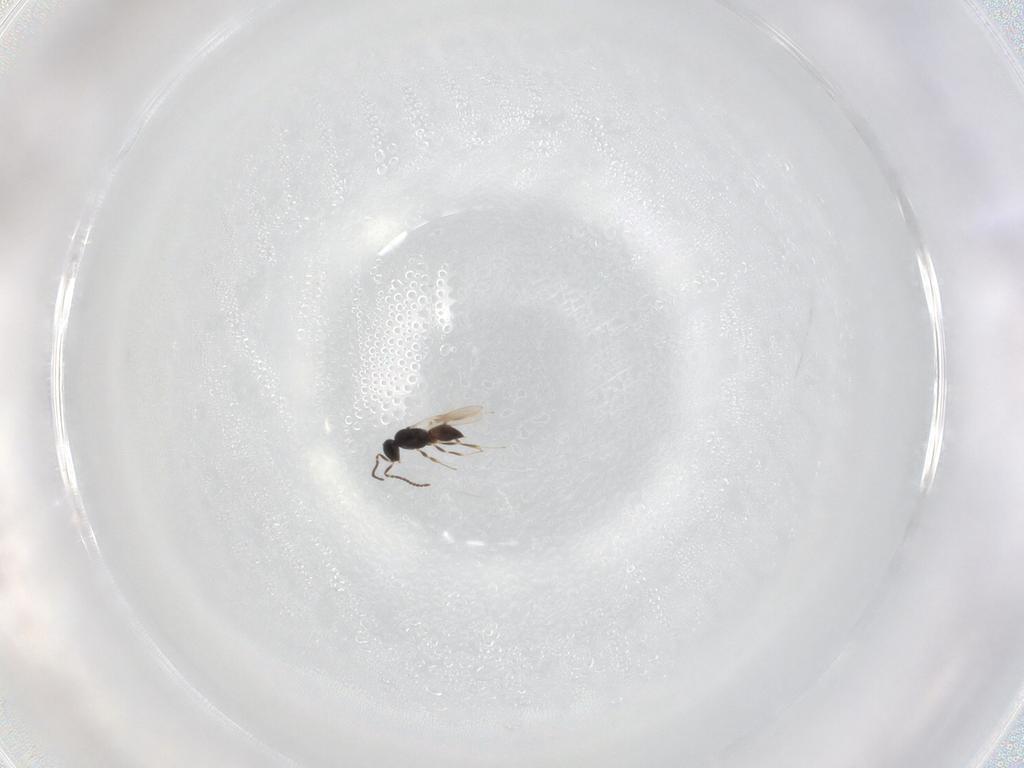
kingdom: Animalia
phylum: Arthropoda
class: Insecta
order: Hymenoptera
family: Scelionidae
